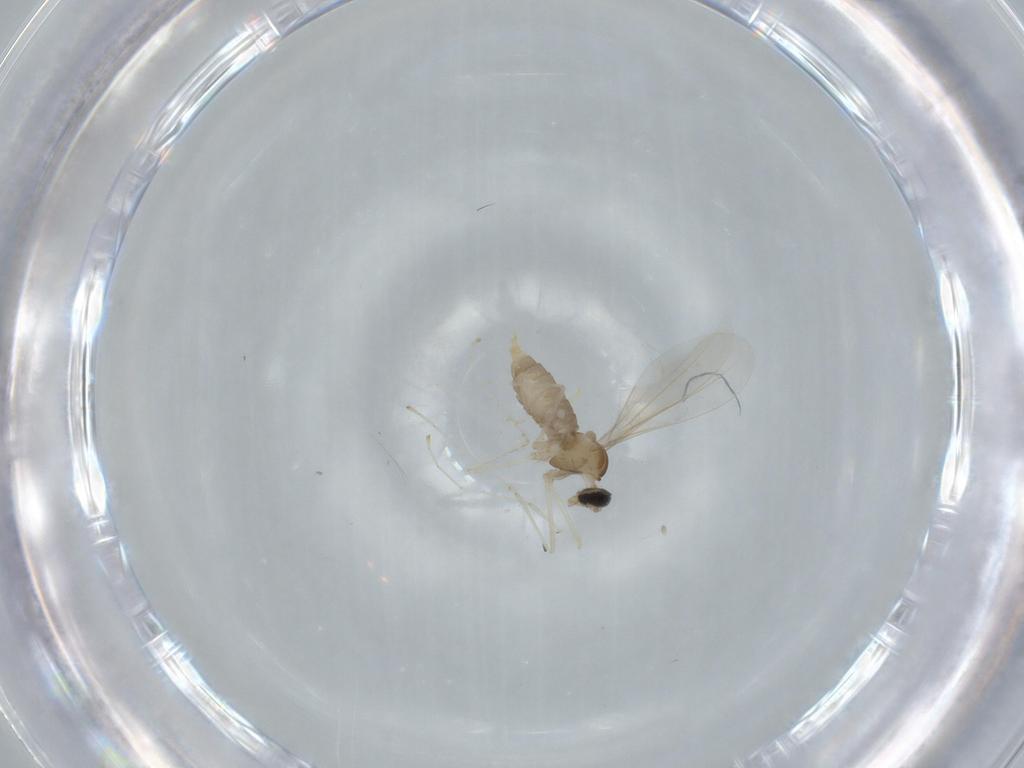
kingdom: Animalia
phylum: Arthropoda
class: Insecta
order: Diptera
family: Cecidomyiidae
